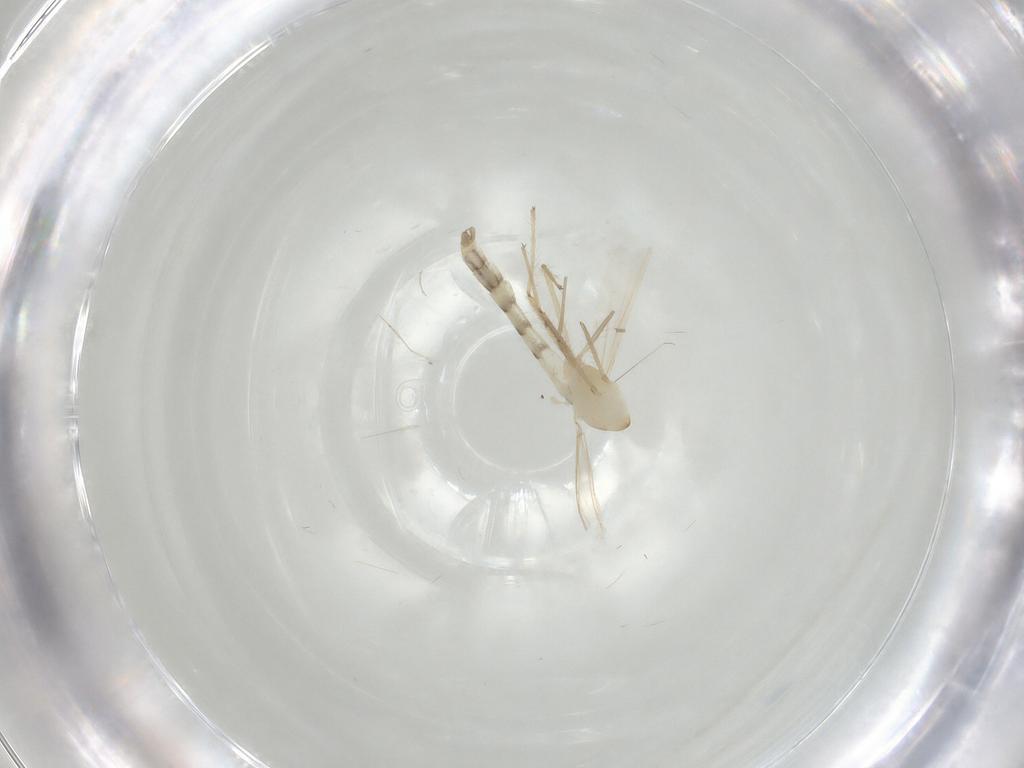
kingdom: Animalia
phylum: Arthropoda
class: Insecta
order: Diptera
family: Chironomidae
